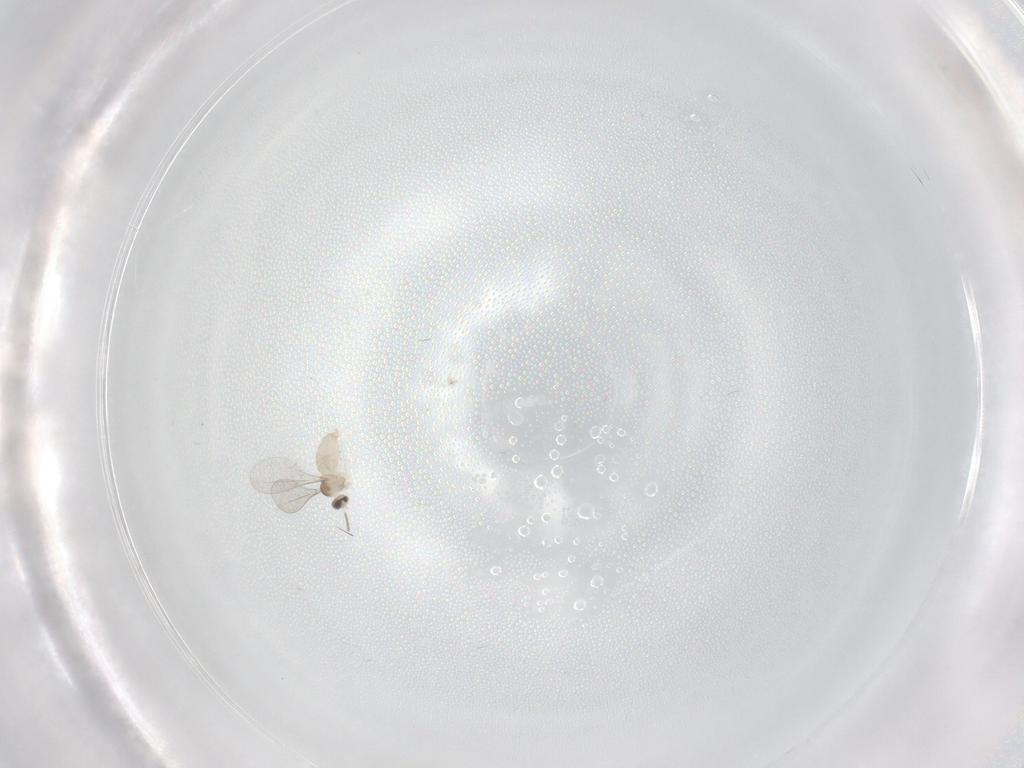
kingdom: Animalia
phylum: Arthropoda
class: Insecta
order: Diptera
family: Cecidomyiidae
